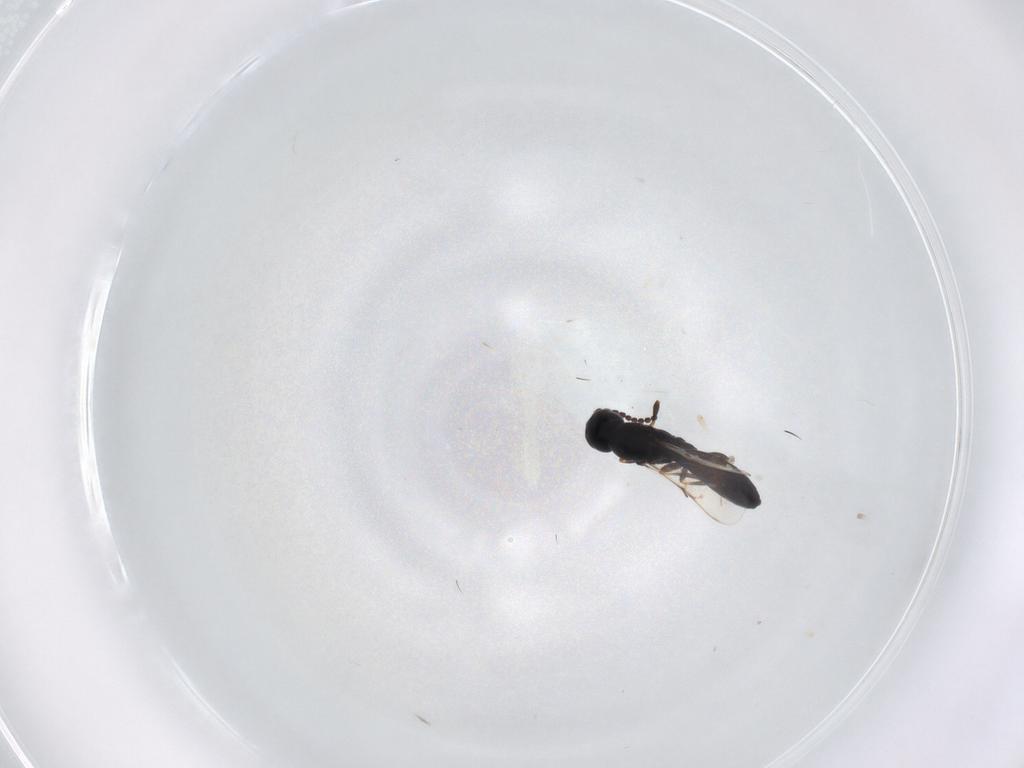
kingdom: Animalia
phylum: Arthropoda
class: Insecta
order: Hymenoptera
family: Scelionidae
